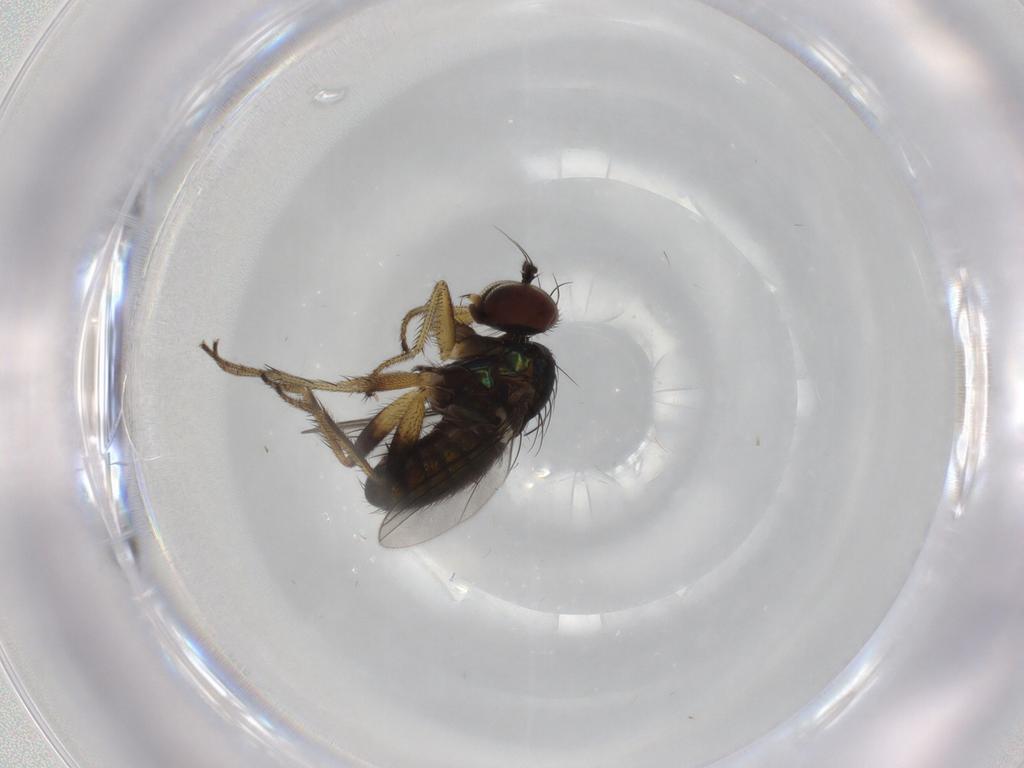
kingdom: Animalia
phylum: Arthropoda
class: Insecta
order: Diptera
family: Dolichopodidae
